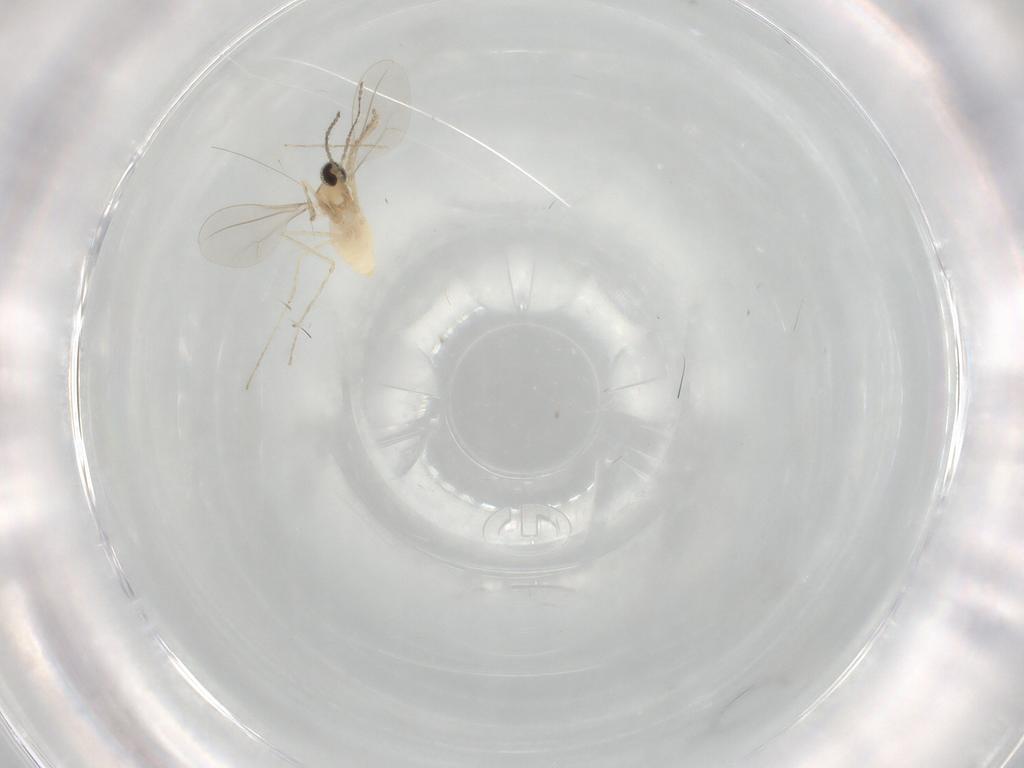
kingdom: Animalia
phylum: Arthropoda
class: Insecta
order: Diptera
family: Cecidomyiidae
